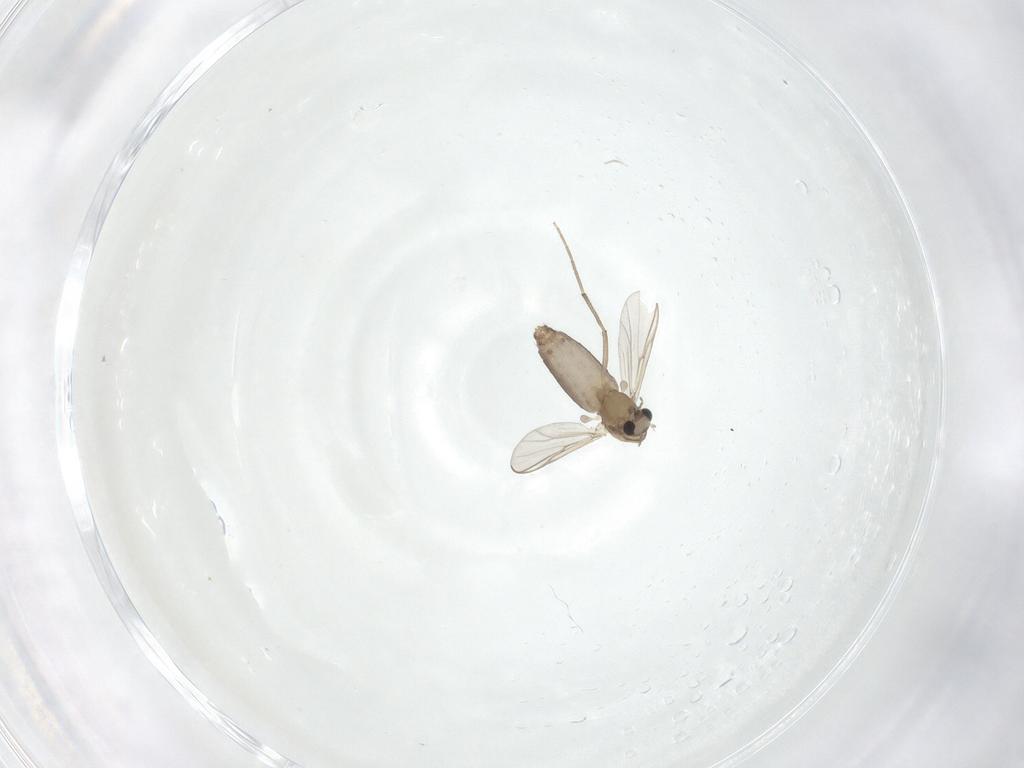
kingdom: Animalia
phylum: Arthropoda
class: Insecta
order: Diptera
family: Chironomidae
